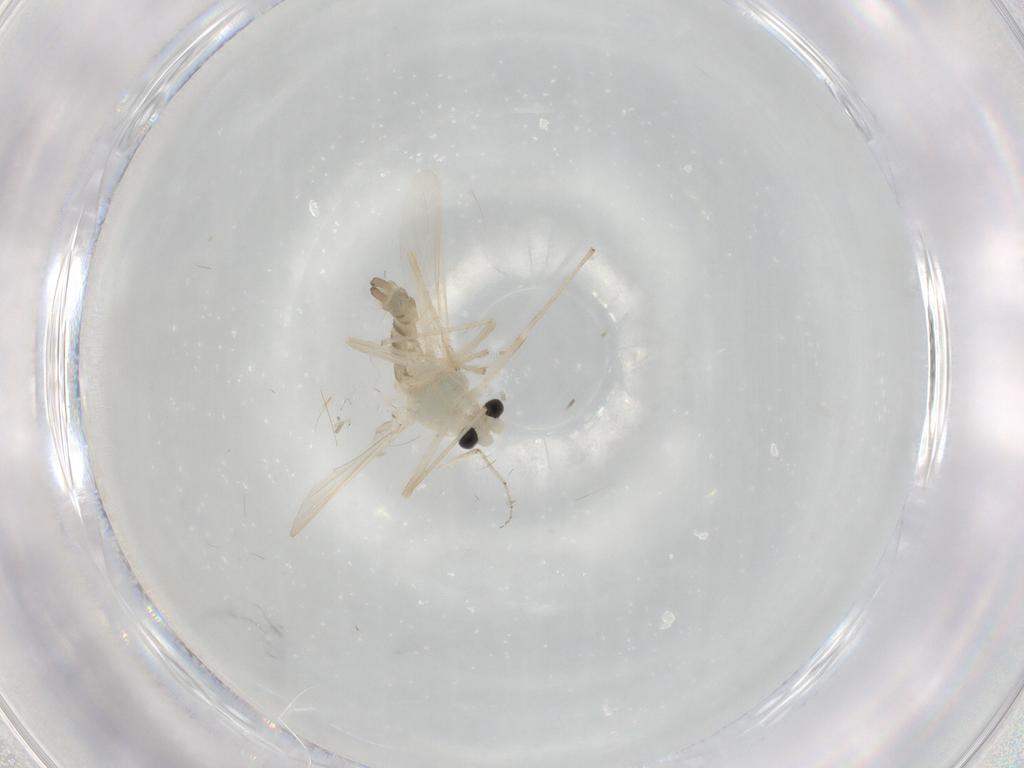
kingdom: Animalia
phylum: Arthropoda
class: Insecta
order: Diptera
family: Chironomidae
